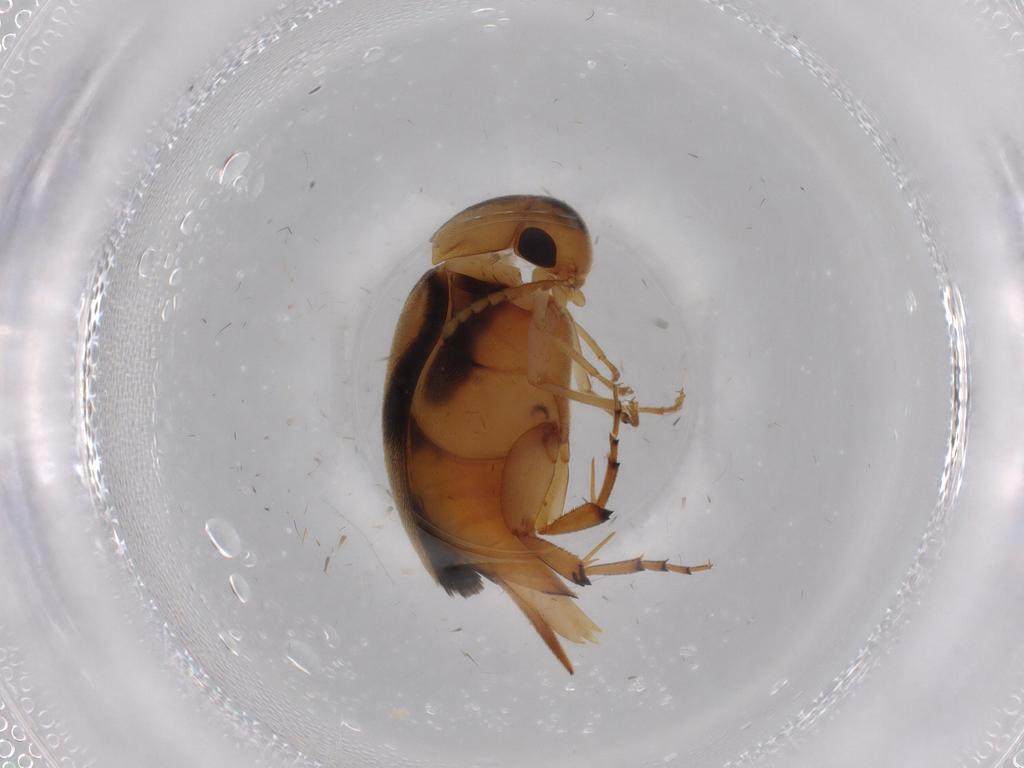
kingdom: Animalia
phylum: Arthropoda
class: Insecta
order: Coleoptera
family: Mordellidae
